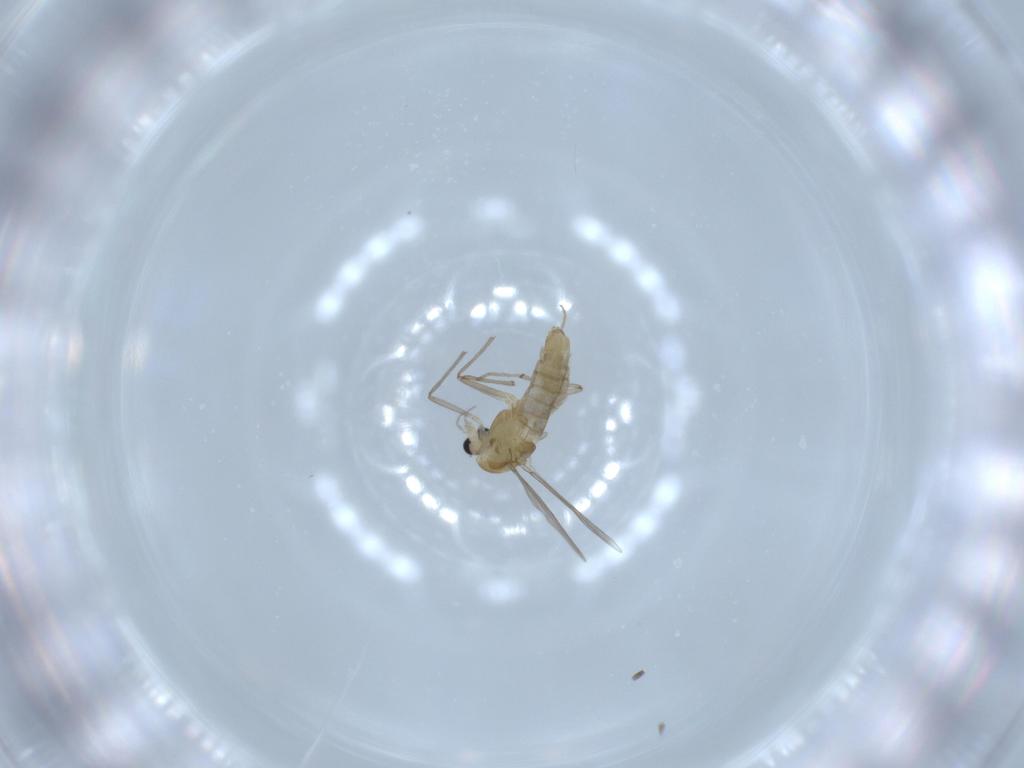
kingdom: Animalia
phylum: Arthropoda
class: Insecta
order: Diptera
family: Chironomidae
